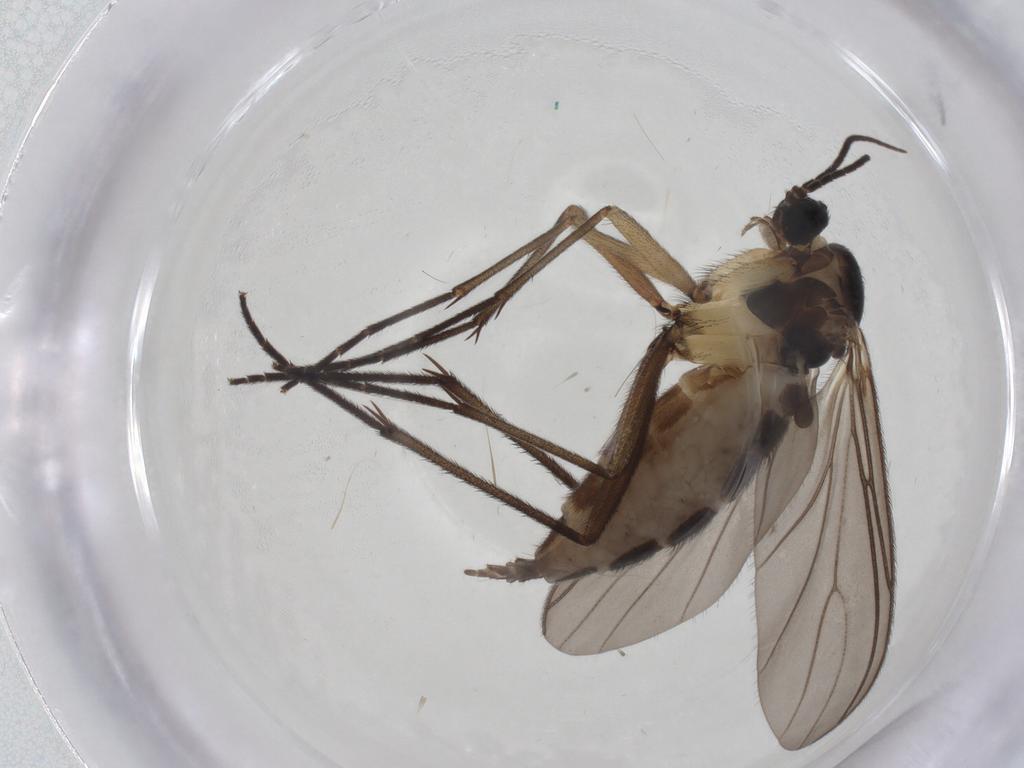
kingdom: Animalia
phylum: Arthropoda
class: Insecta
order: Diptera
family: Sciaridae
